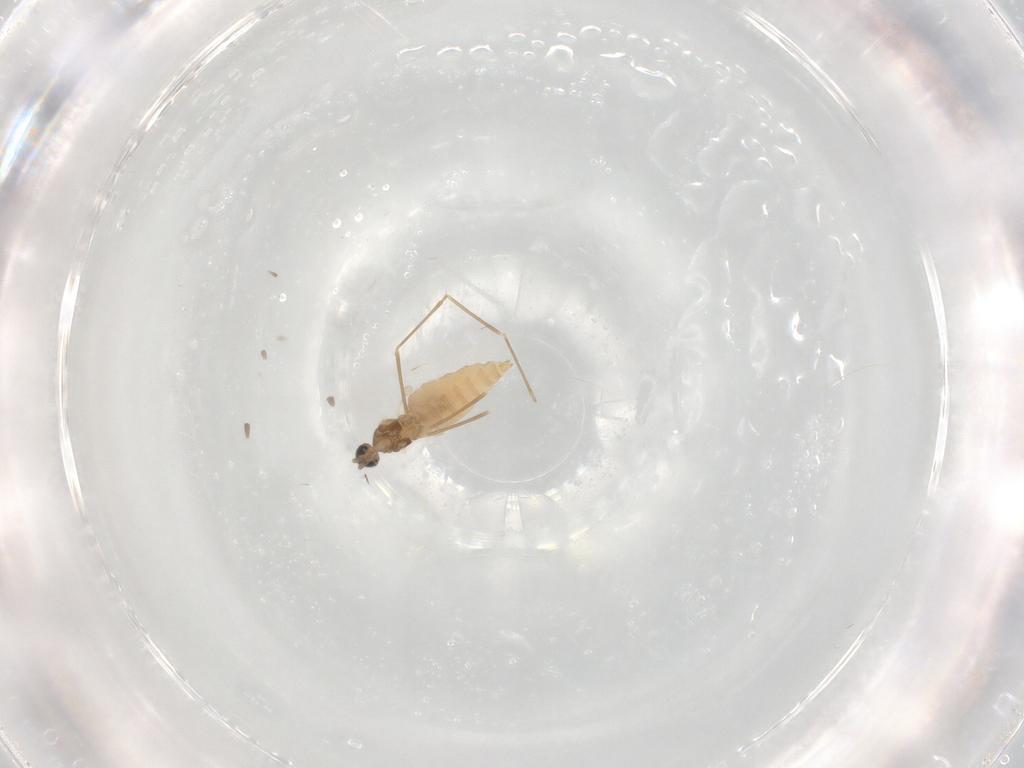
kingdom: Animalia
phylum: Arthropoda
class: Insecta
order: Diptera
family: Cecidomyiidae
